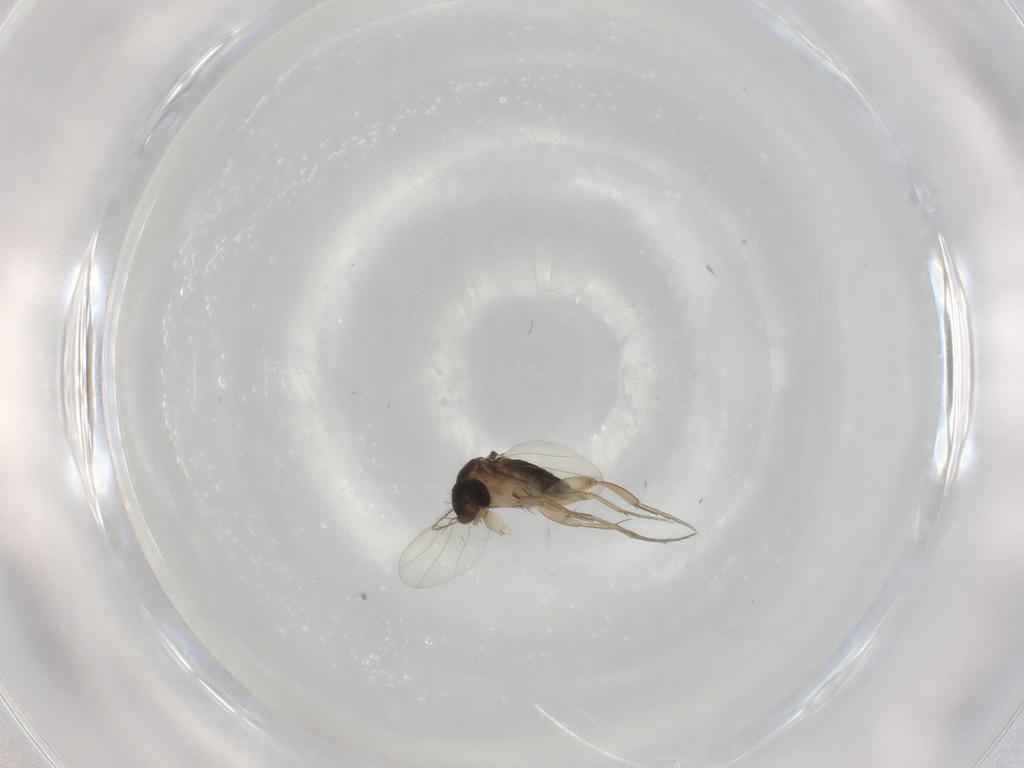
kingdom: Animalia
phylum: Arthropoda
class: Insecta
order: Diptera
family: Phoridae
